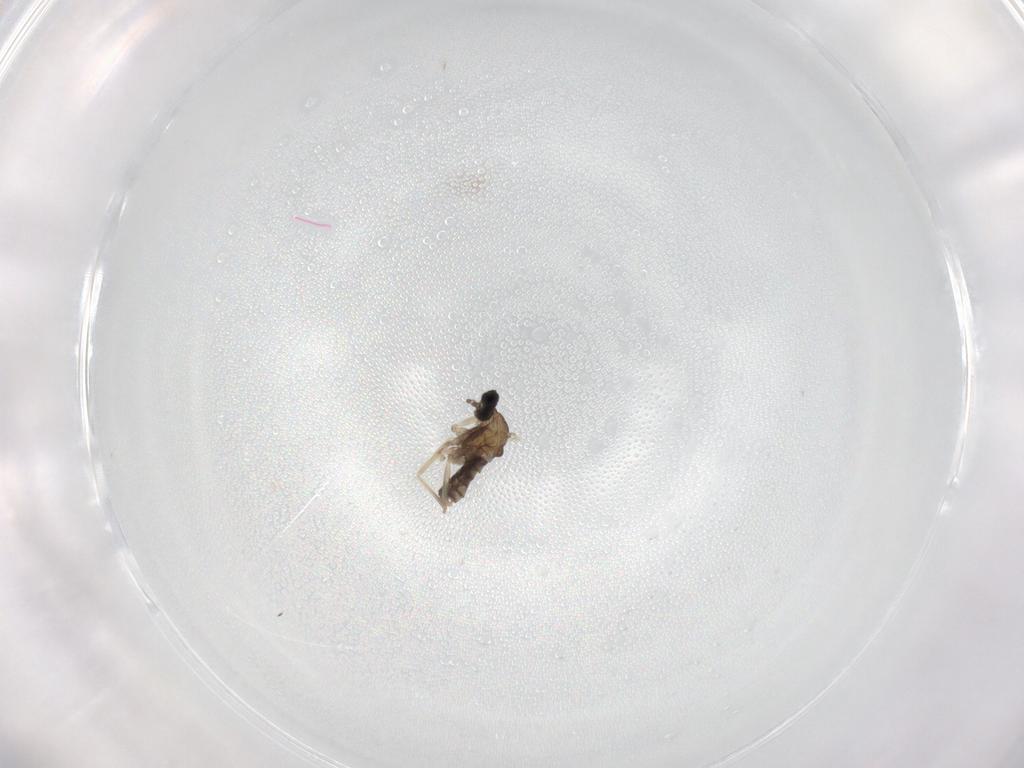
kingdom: Animalia
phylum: Arthropoda
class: Insecta
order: Diptera
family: Cecidomyiidae
